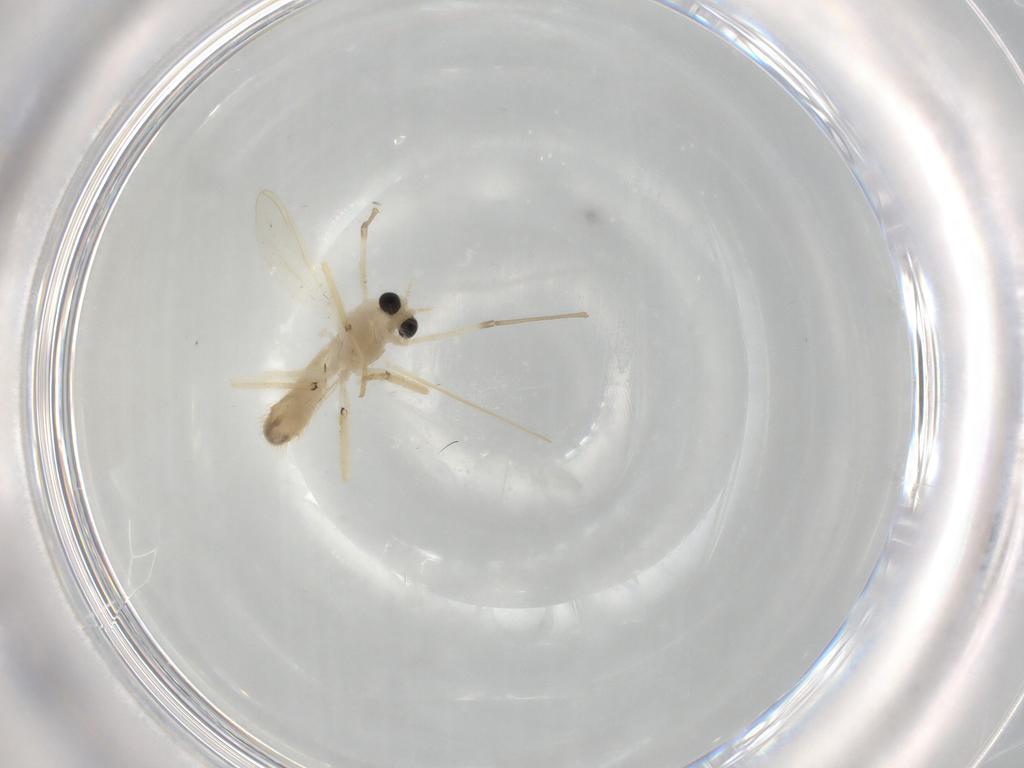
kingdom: Animalia
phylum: Arthropoda
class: Insecta
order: Diptera
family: Chironomidae
